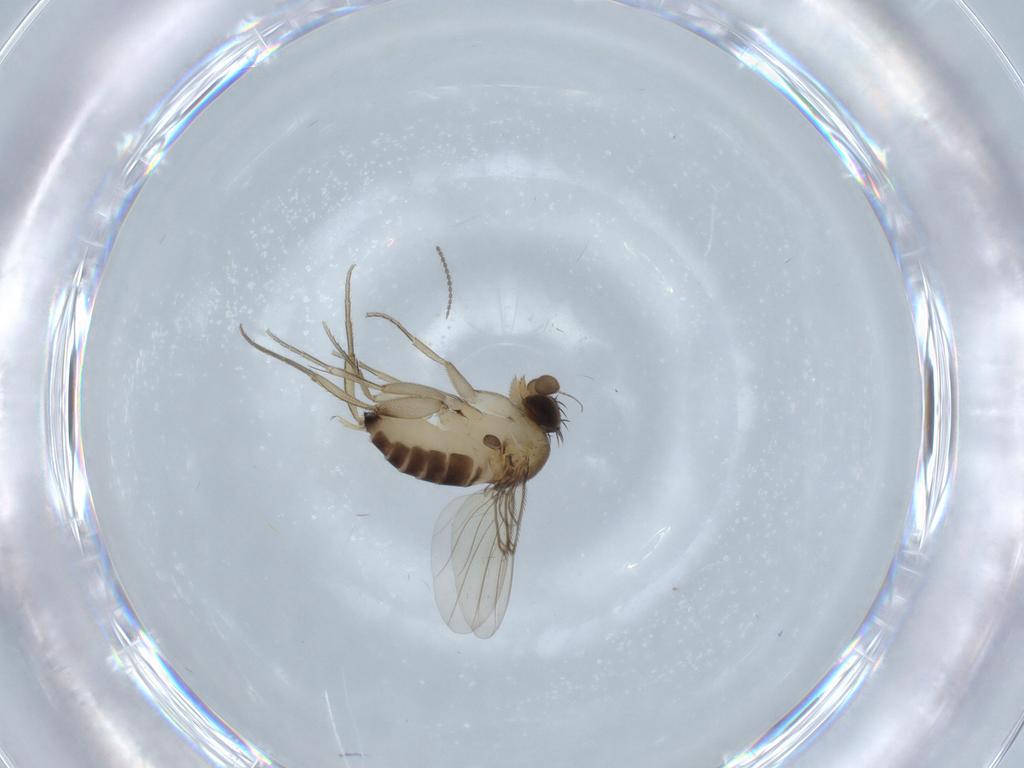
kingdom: Animalia
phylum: Arthropoda
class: Insecta
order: Diptera
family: Phoridae
